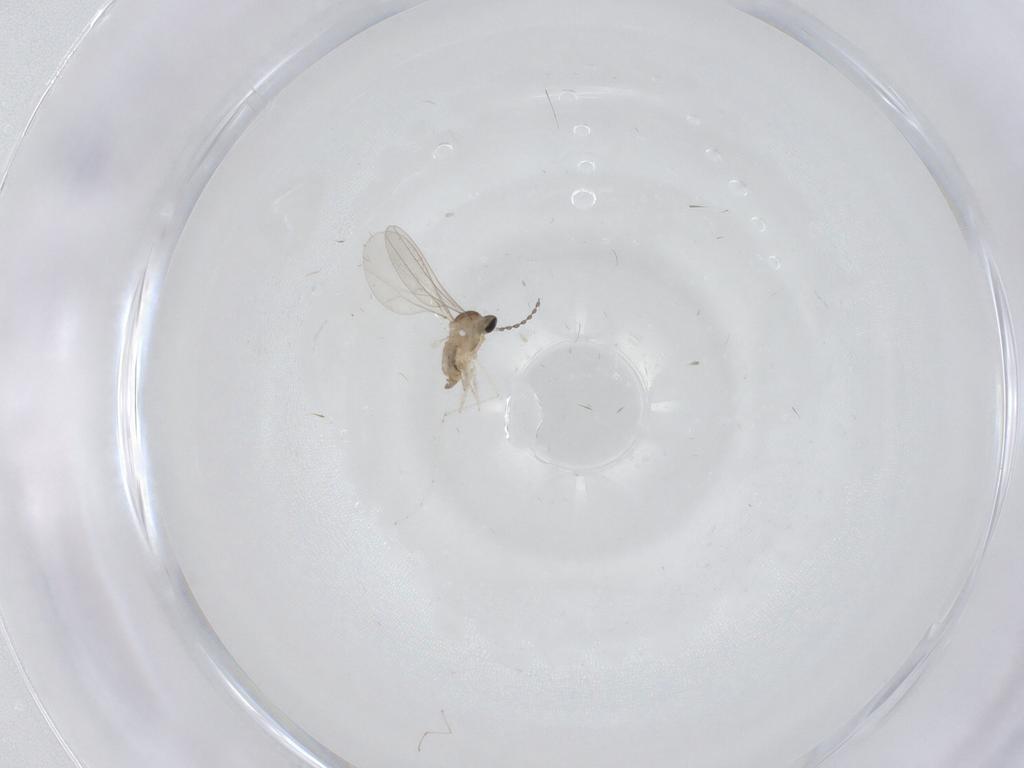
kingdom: Animalia
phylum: Arthropoda
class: Insecta
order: Diptera
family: Cecidomyiidae
